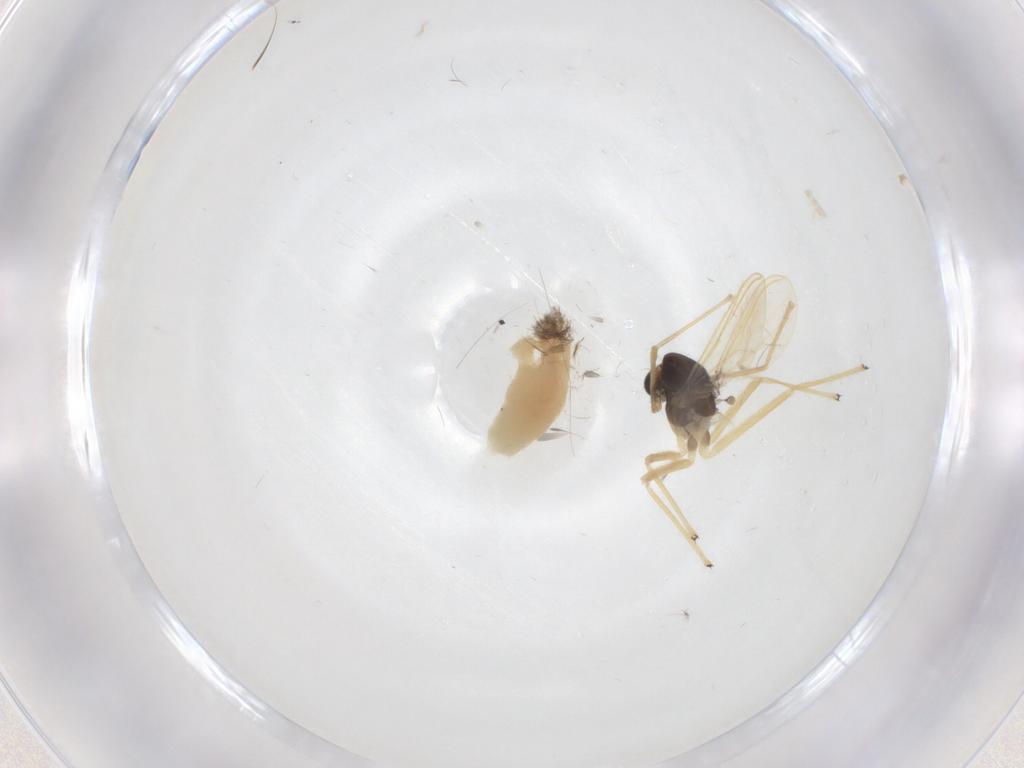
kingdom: Animalia
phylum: Arthropoda
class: Insecta
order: Diptera
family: Chironomidae
